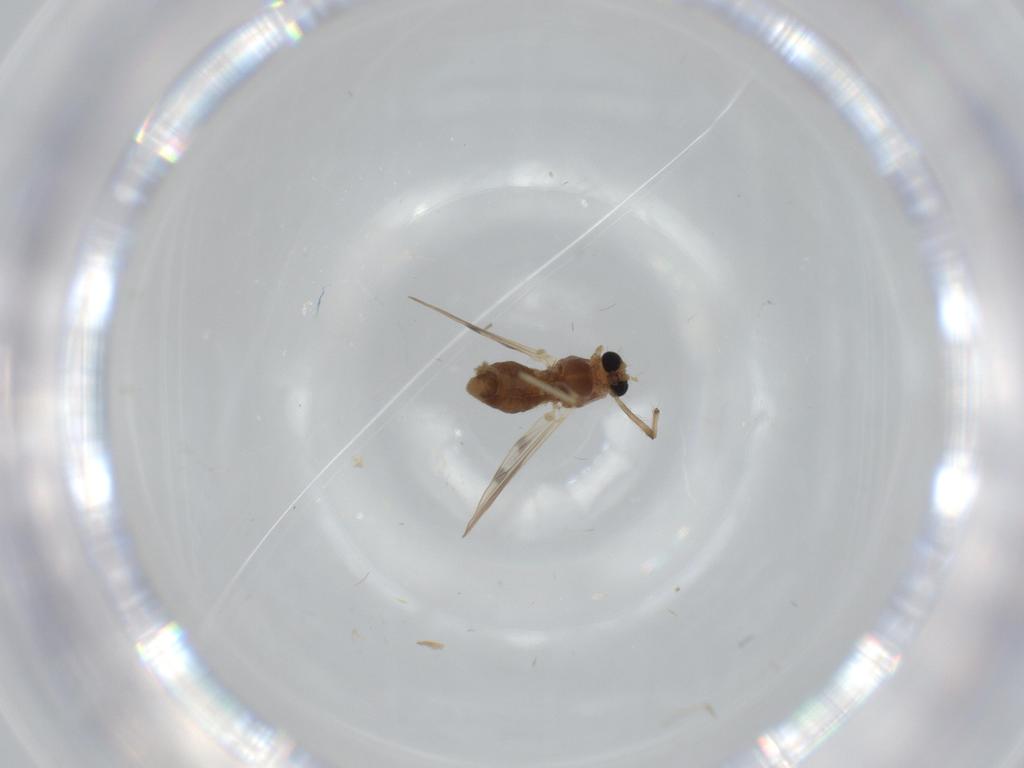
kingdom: Animalia
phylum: Arthropoda
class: Insecta
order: Diptera
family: Chironomidae
